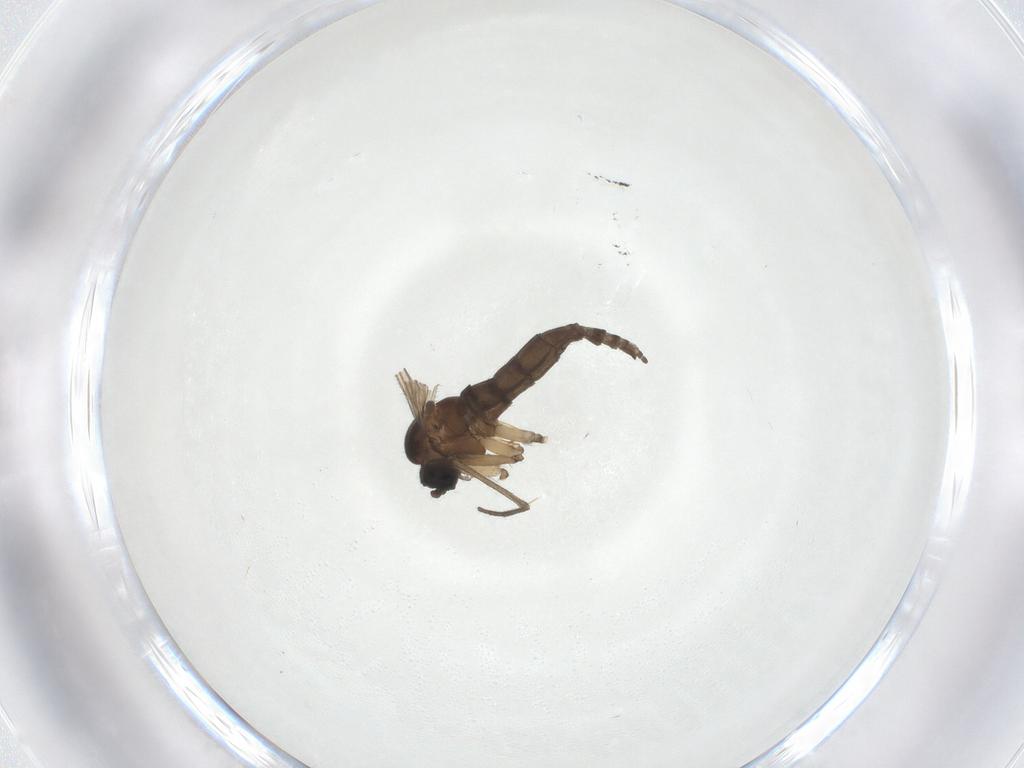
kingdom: Animalia
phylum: Arthropoda
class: Insecta
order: Diptera
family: Sciaridae
